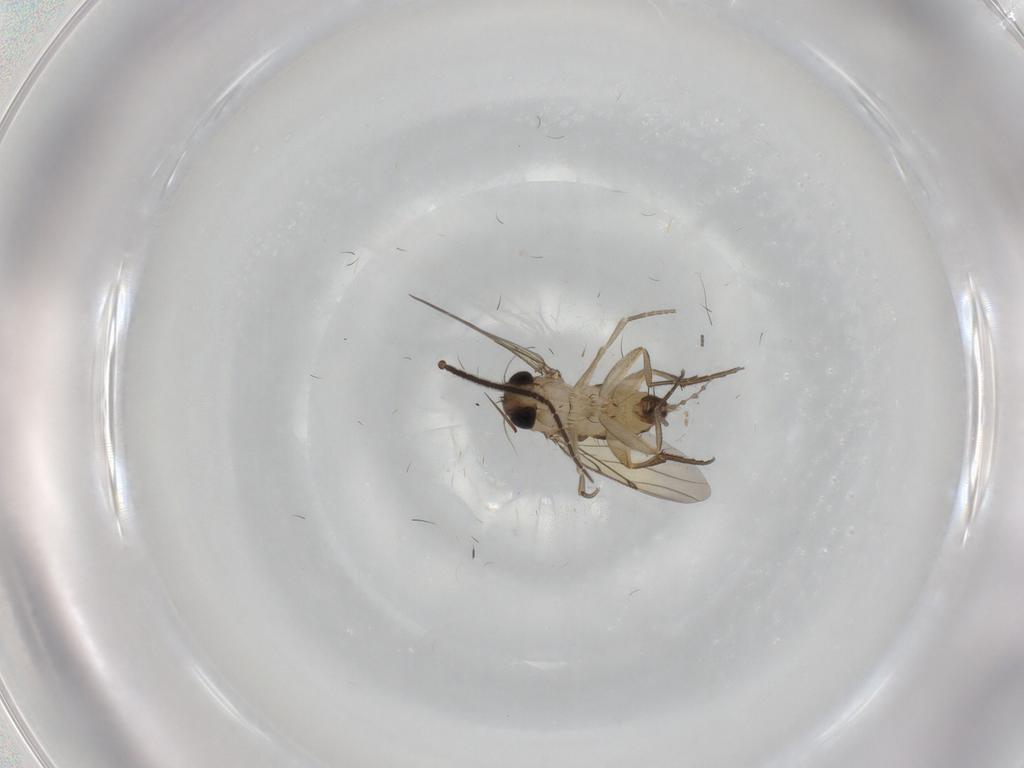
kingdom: Animalia
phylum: Arthropoda
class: Insecta
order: Diptera
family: Sciaridae
